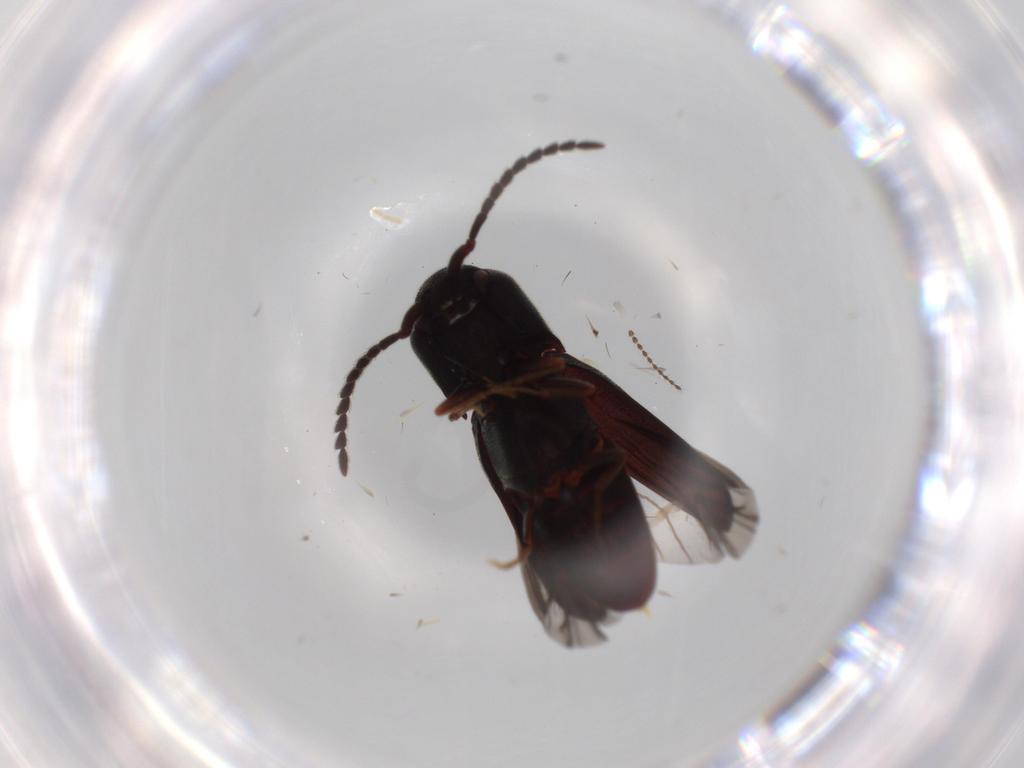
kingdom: Animalia
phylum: Arthropoda
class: Insecta
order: Coleoptera
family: Eucnemidae
